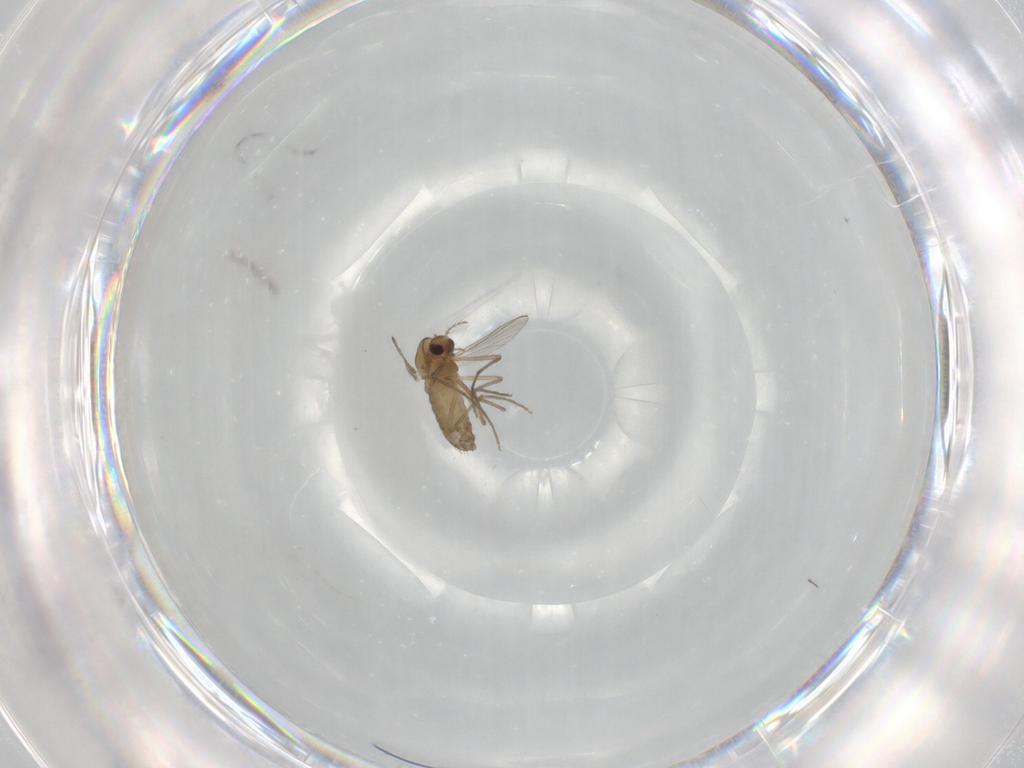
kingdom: Animalia
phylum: Arthropoda
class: Insecta
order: Diptera
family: Chironomidae
